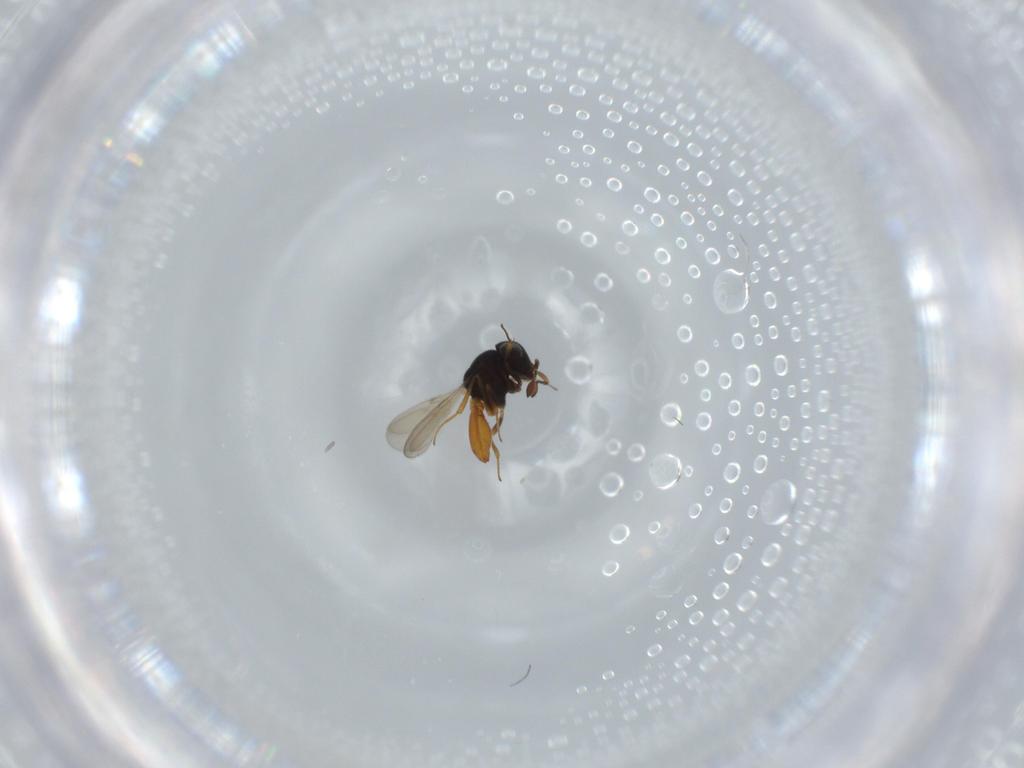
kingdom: Animalia
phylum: Arthropoda
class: Insecta
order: Hymenoptera
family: Scelionidae
